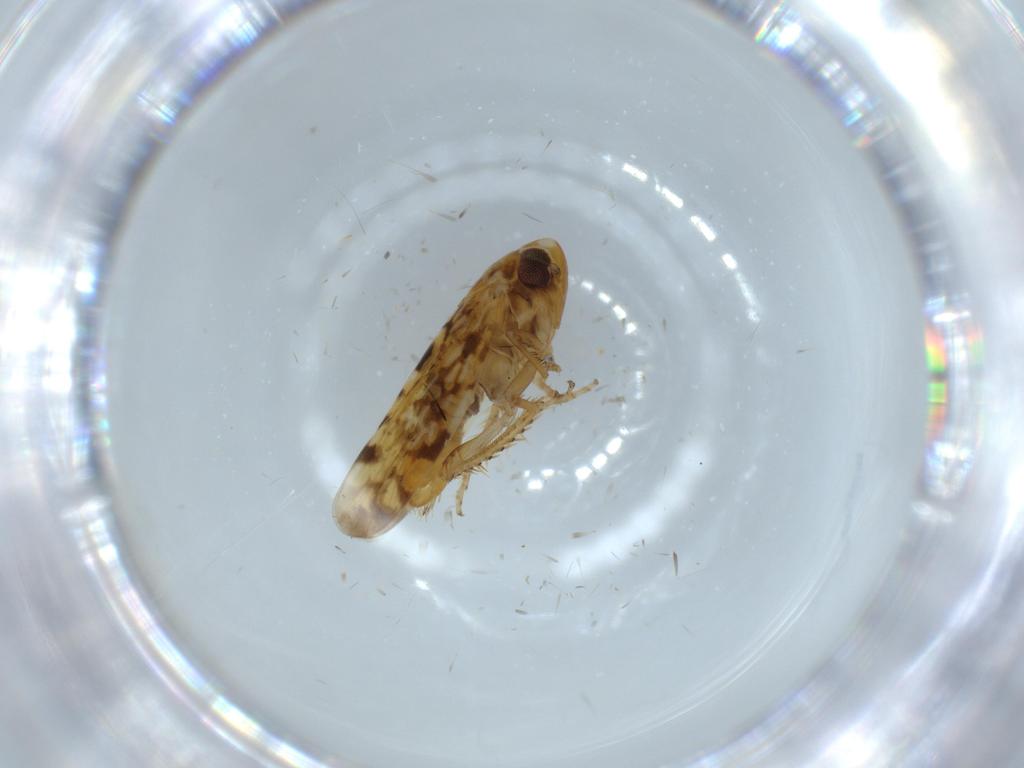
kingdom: Animalia
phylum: Arthropoda
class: Insecta
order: Hemiptera
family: Cicadellidae
